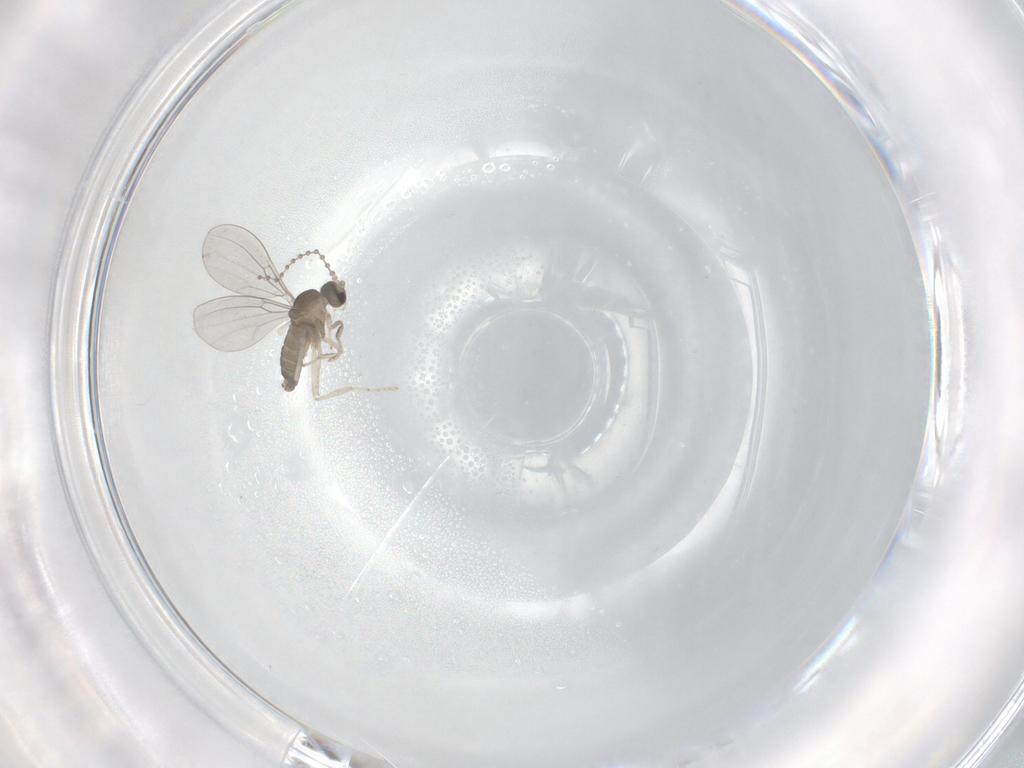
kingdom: Animalia
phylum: Arthropoda
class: Insecta
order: Diptera
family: Cecidomyiidae
